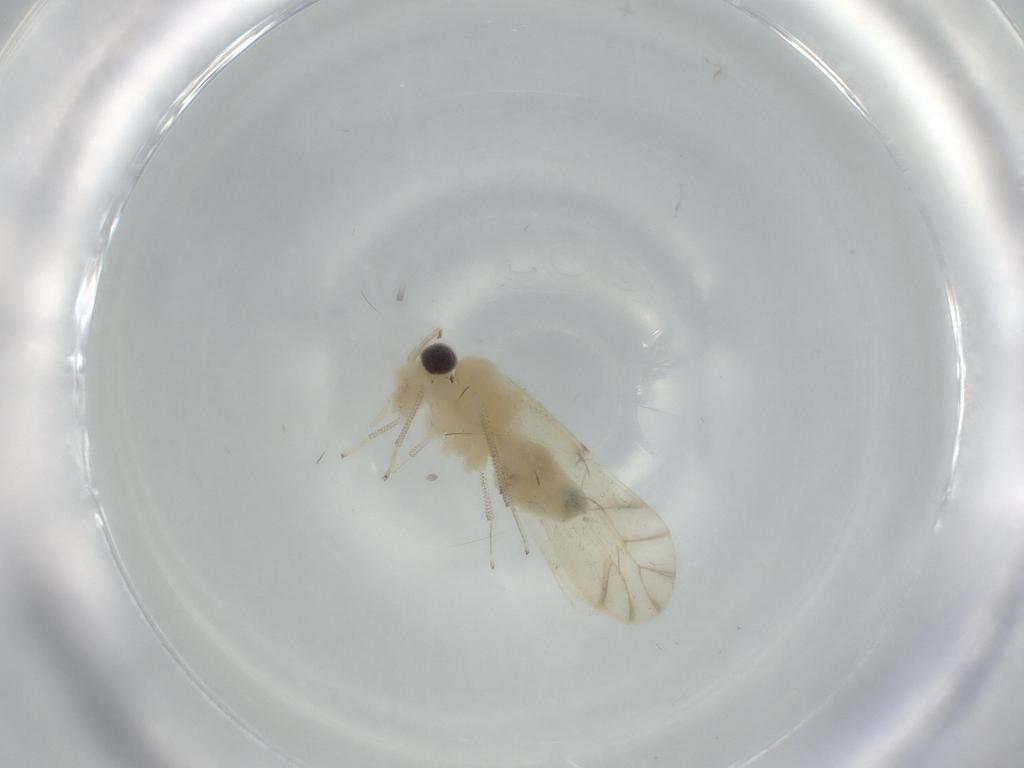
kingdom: Animalia
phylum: Arthropoda
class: Insecta
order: Psocodea
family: Caeciliusidae
